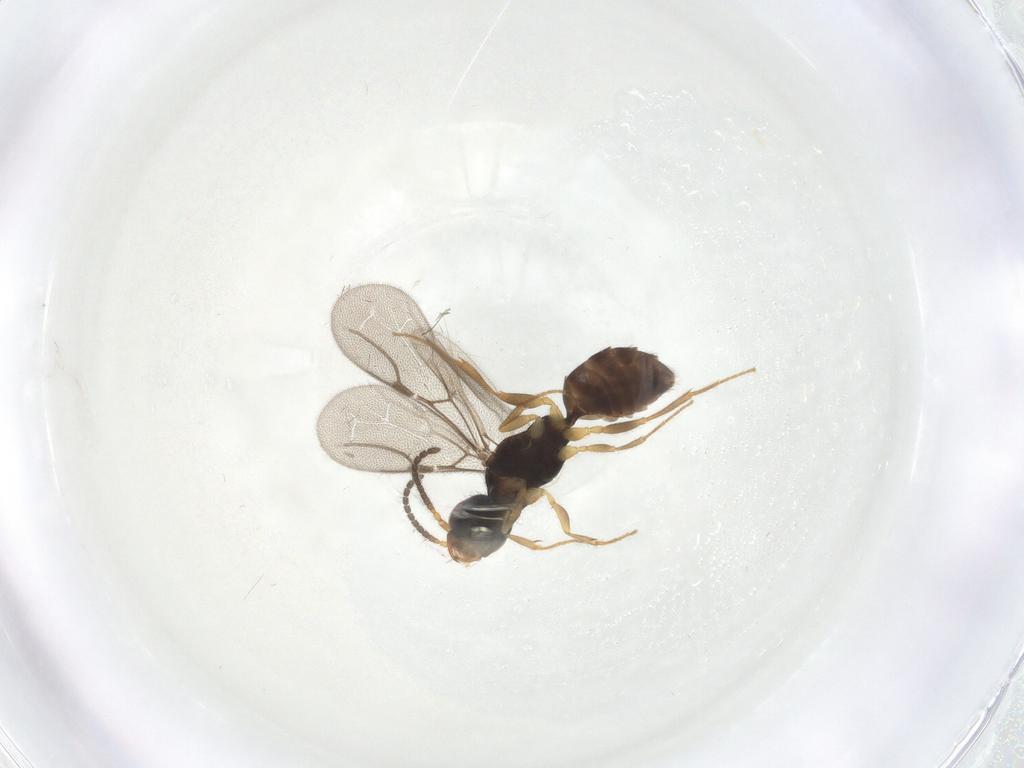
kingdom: Animalia
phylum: Arthropoda
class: Insecta
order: Hymenoptera
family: Bethylidae
